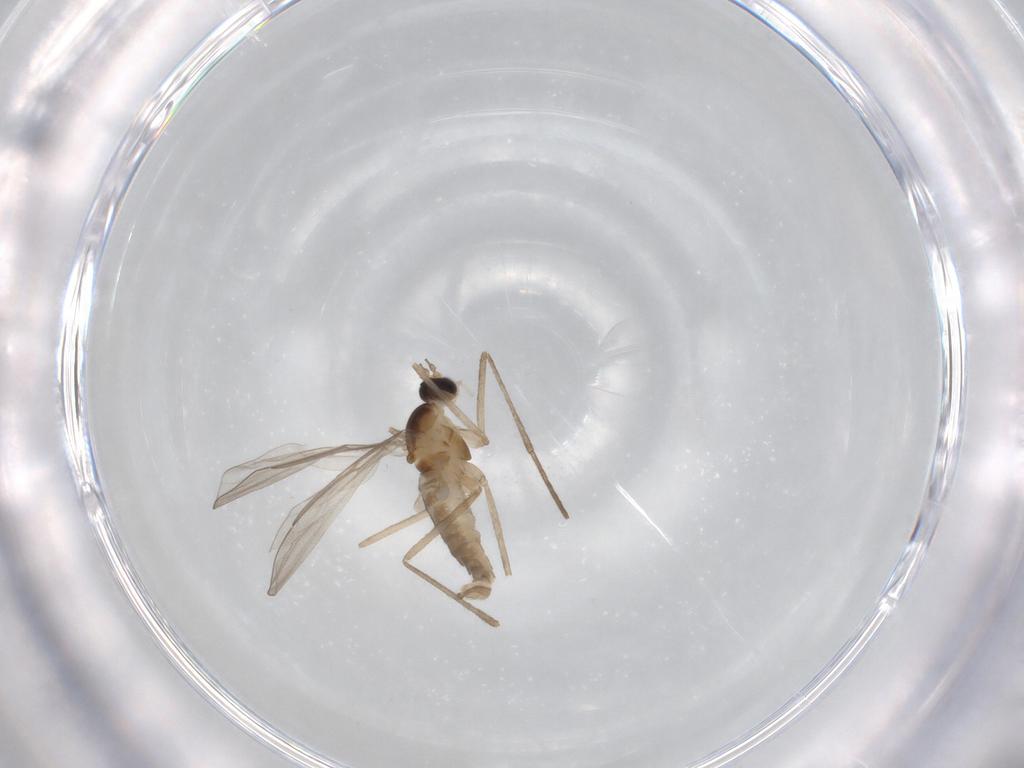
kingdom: Animalia
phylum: Arthropoda
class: Insecta
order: Diptera
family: Cecidomyiidae
